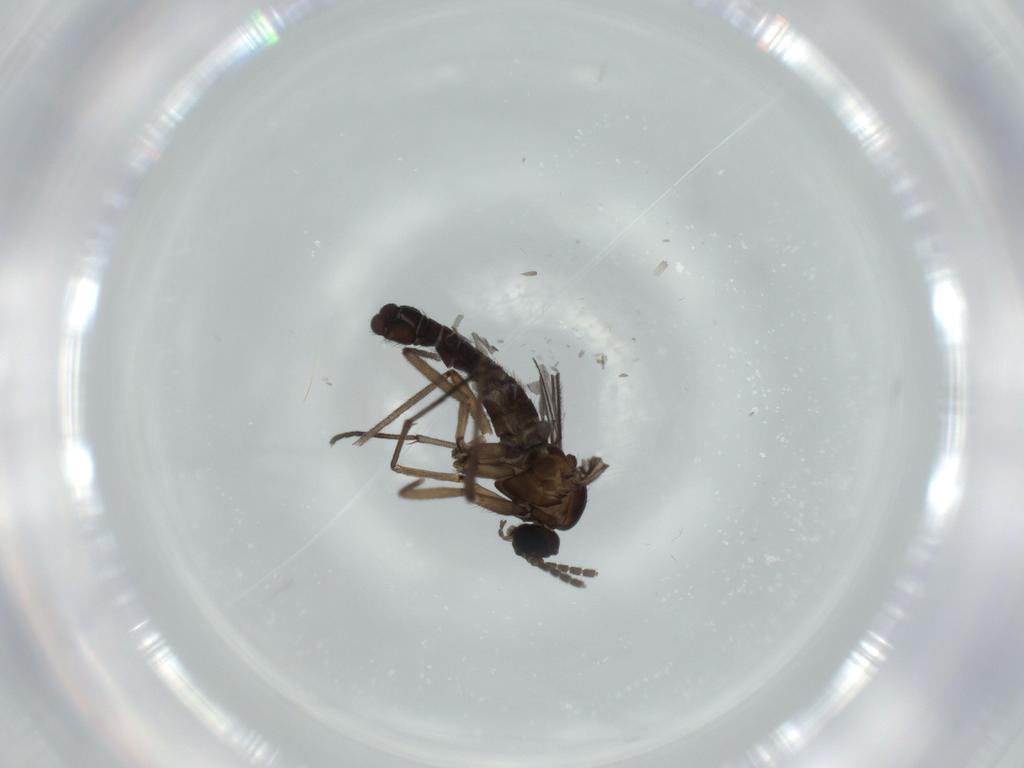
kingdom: Animalia
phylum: Arthropoda
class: Insecta
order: Diptera
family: Sciaridae
